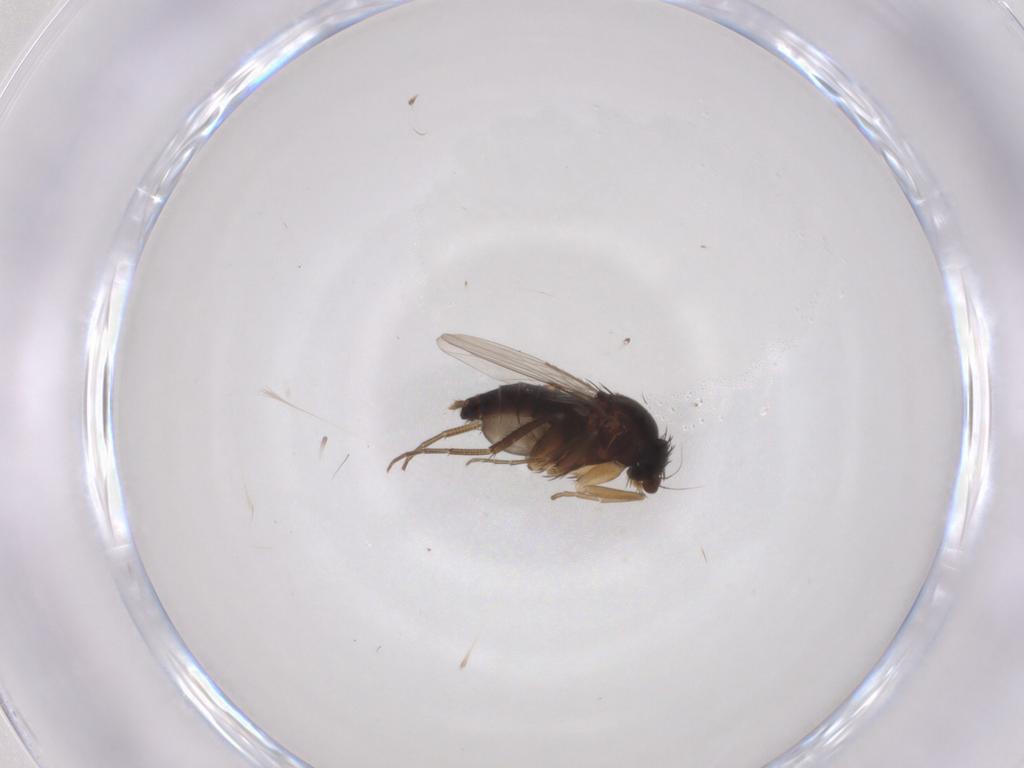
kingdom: Animalia
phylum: Arthropoda
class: Insecta
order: Diptera
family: Phoridae
